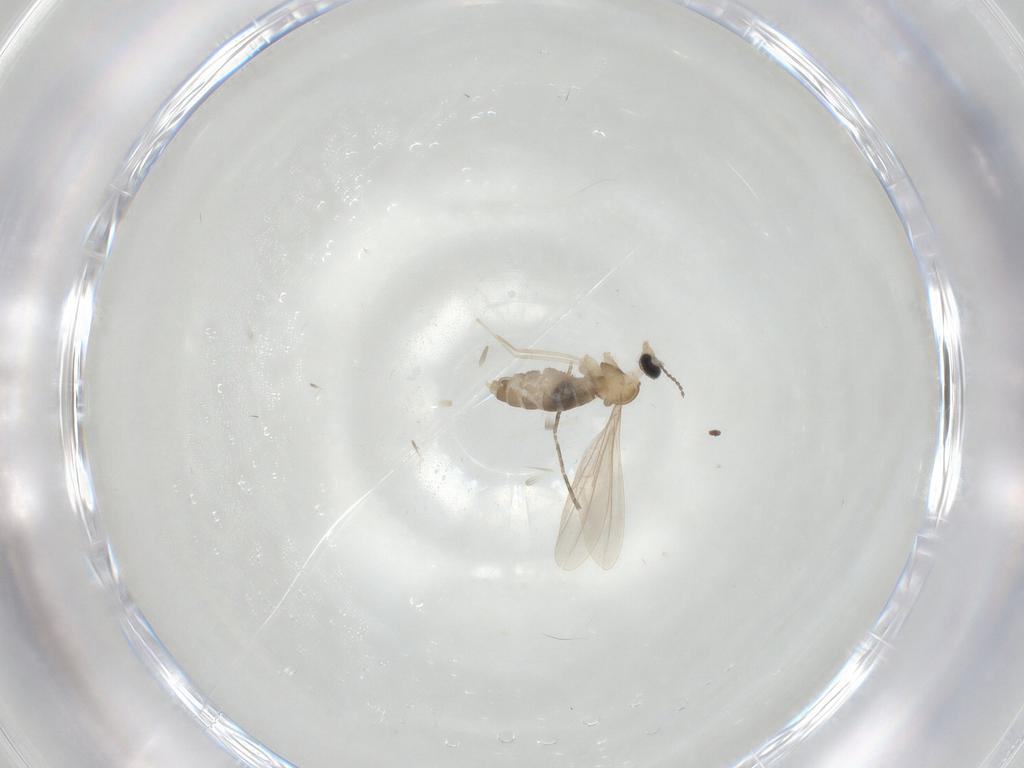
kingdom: Animalia
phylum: Arthropoda
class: Insecta
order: Diptera
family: Cecidomyiidae
